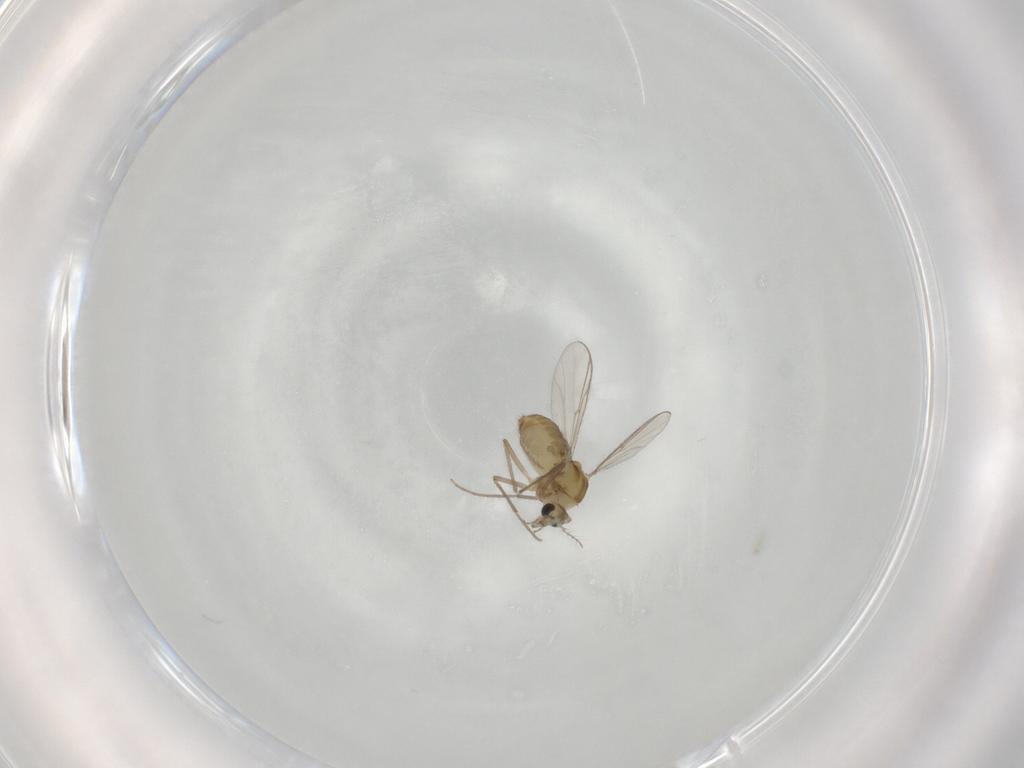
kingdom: Animalia
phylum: Arthropoda
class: Insecta
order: Diptera
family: Chironomidae
